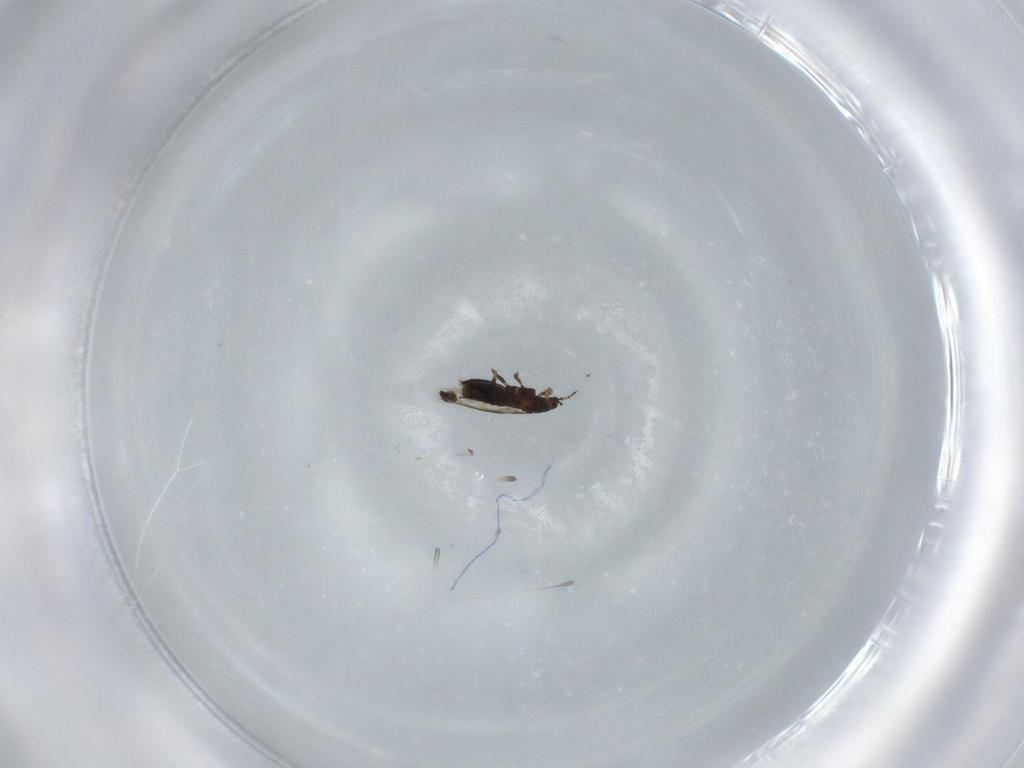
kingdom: Animalia
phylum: Arthropoda
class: Insecta
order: Thysanoptera
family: Thripidae
